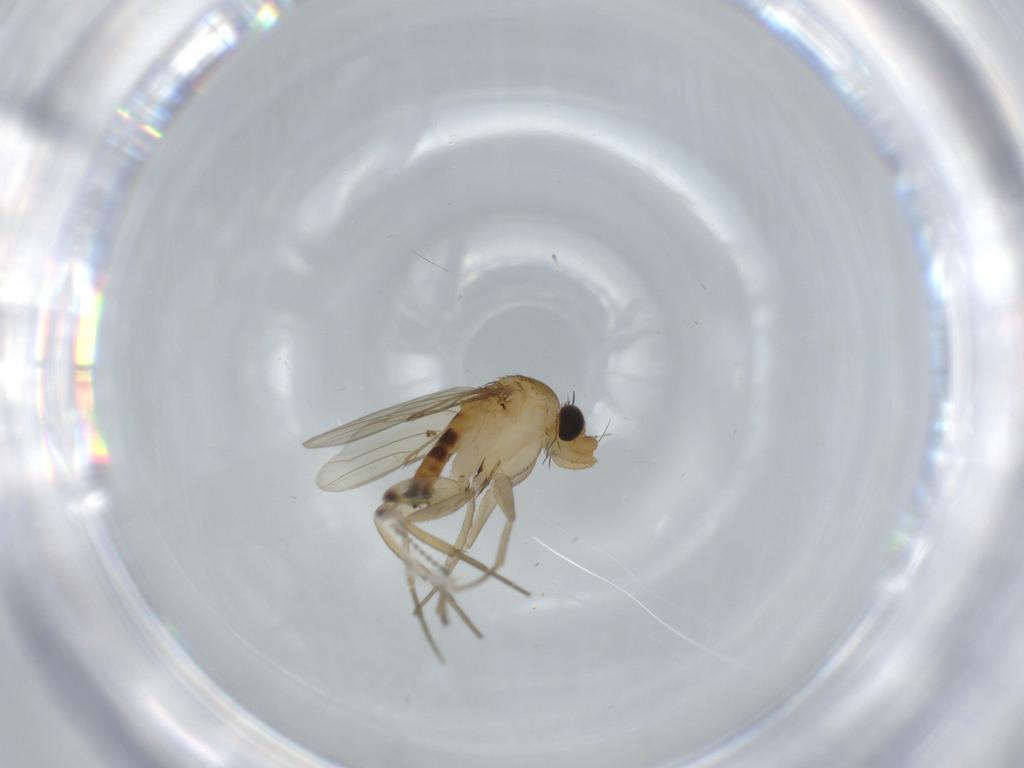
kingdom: Animalia
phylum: Arthropoda
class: Insecta
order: Diptera
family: Phoridae
